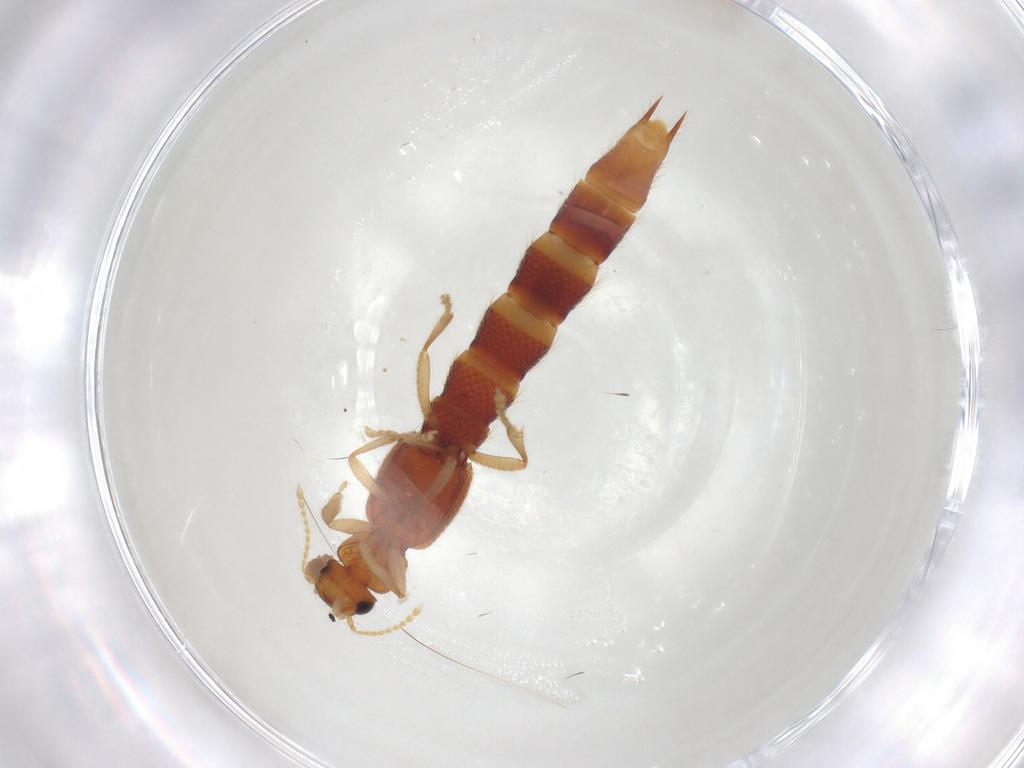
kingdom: Animalia
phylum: Arthropoda
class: Insecta
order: Coleoptera
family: Staphylinidae
